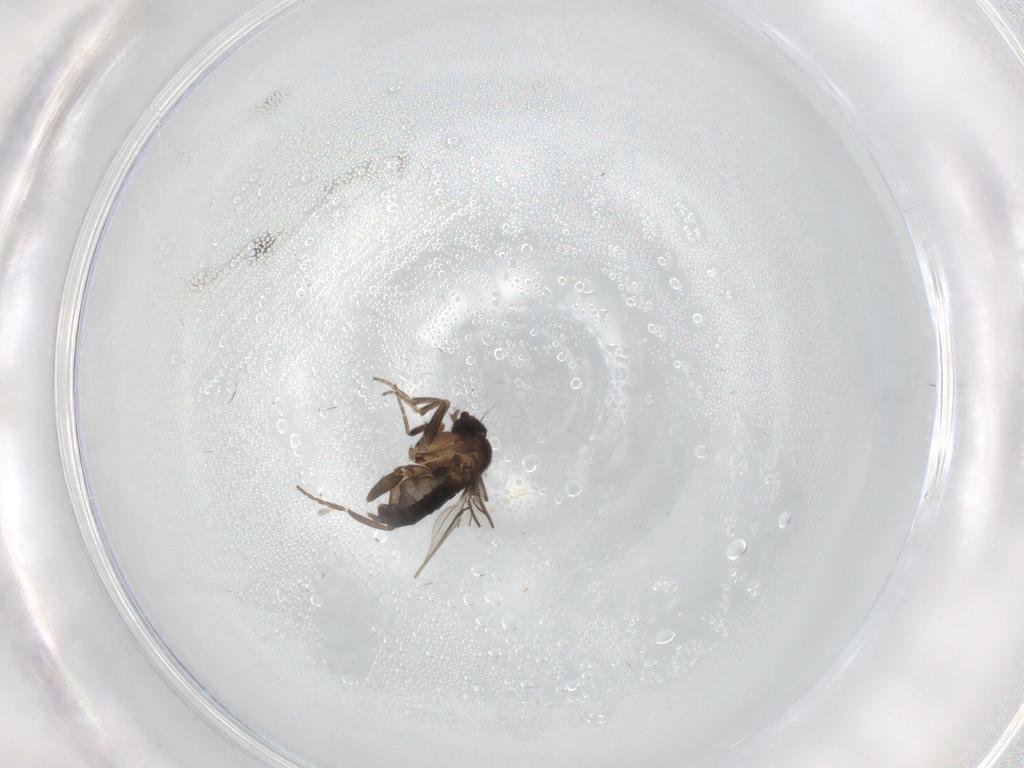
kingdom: Animalia
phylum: Arthropoda
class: Insecta
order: Diptera
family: Phoridae
